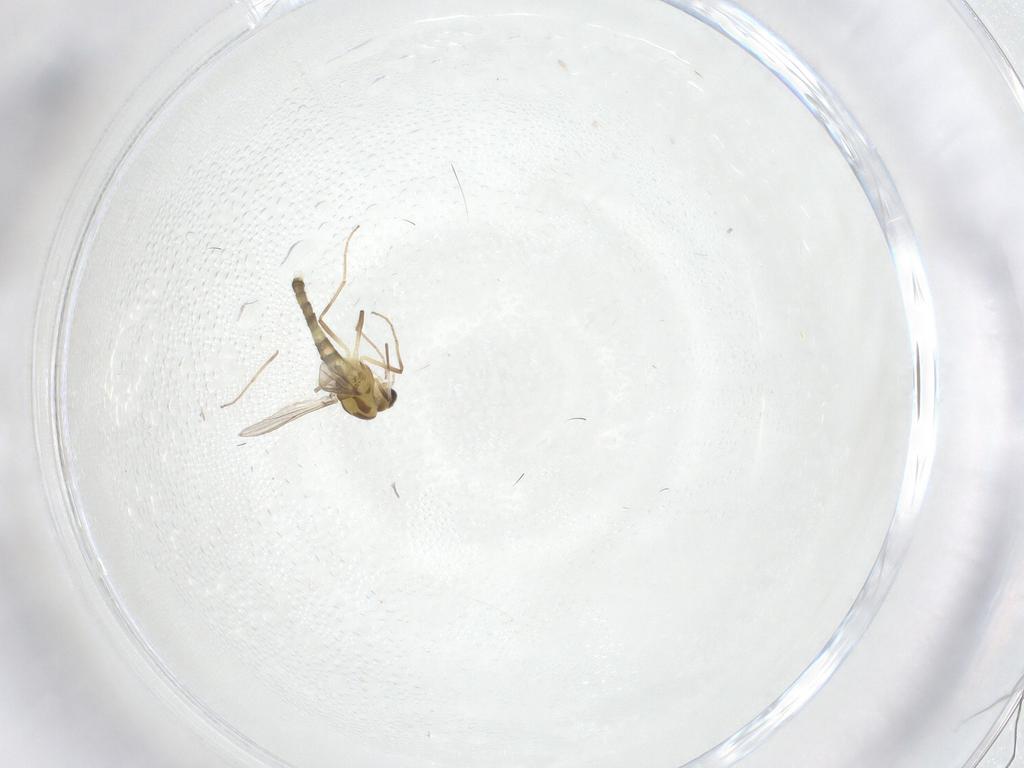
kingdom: Animalia
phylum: Arthropoda
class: Insecta
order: Diptera
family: Chironomidae
